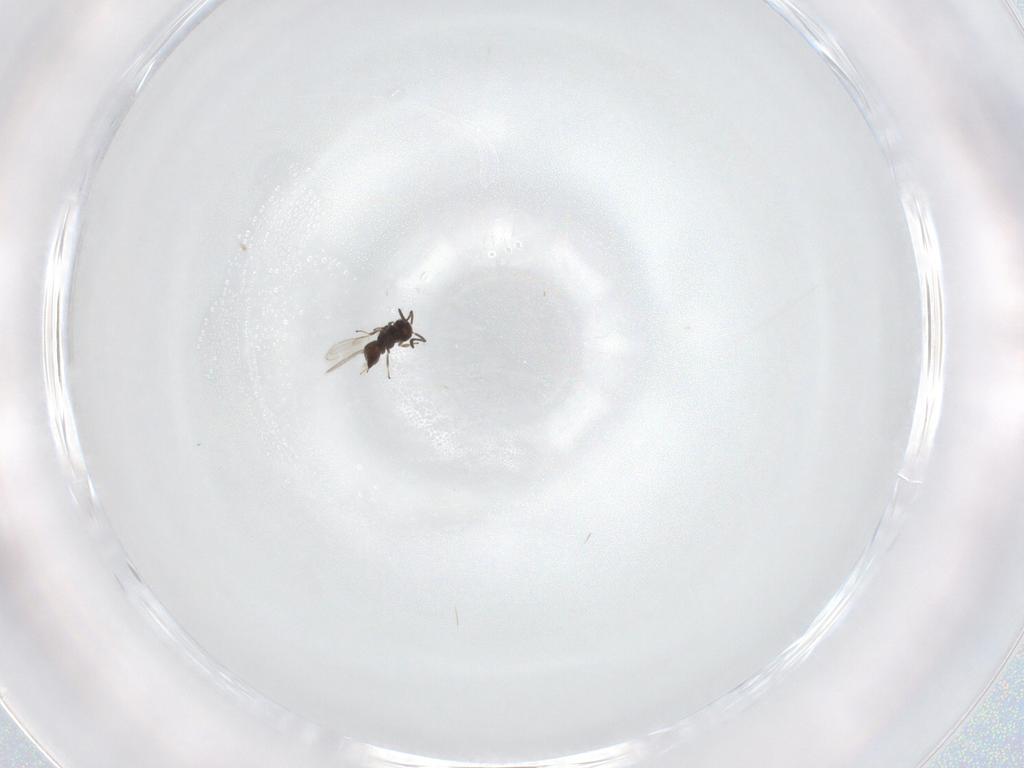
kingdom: Animalia
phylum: Arthropoda
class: Insecta
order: Hymenoptera
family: Scelionidae
